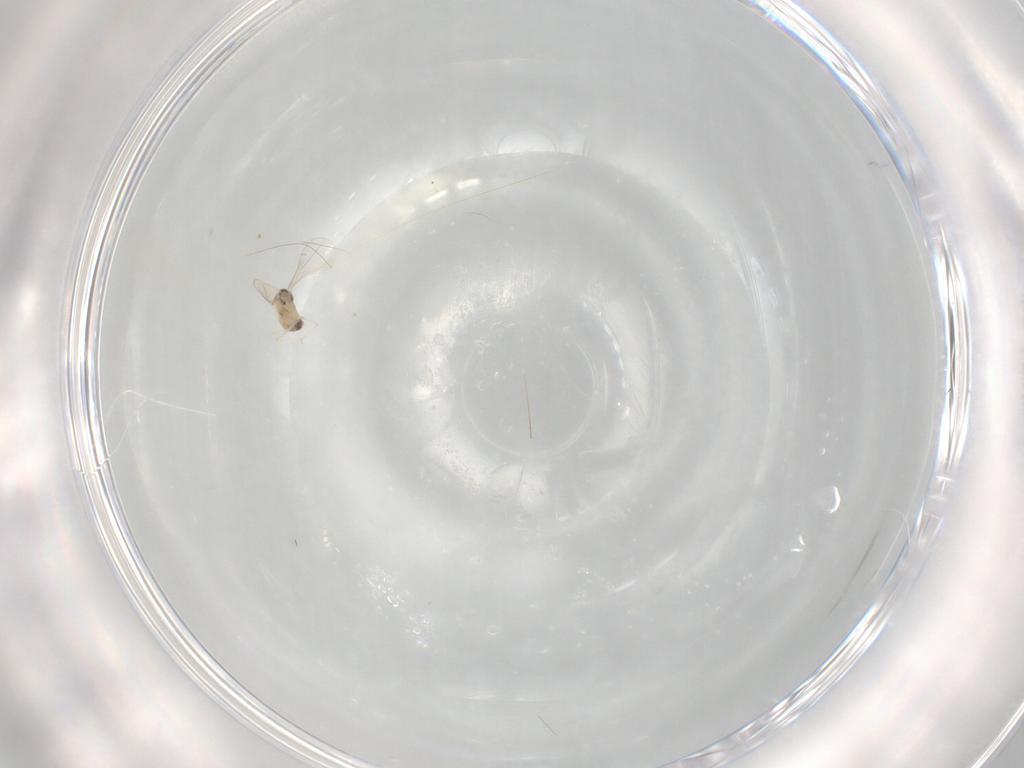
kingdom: Animalia
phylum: Arthropoda
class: Insecta
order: Diptera
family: Cecidomyiidae
